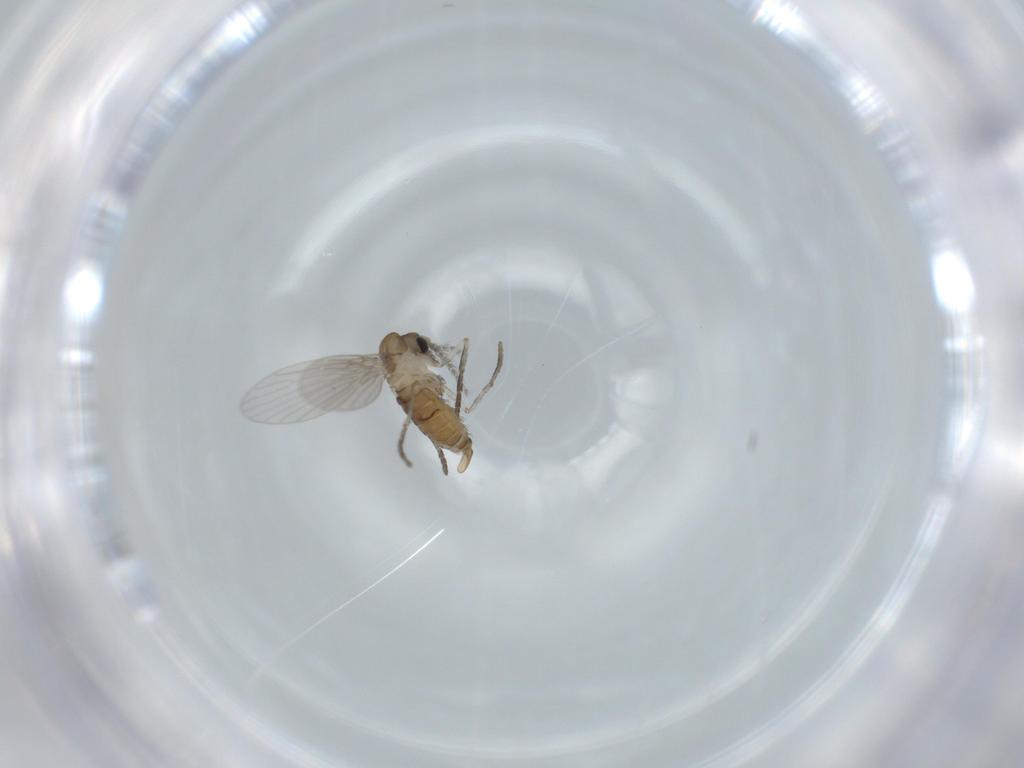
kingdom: Animalia
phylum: Arthropoda
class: Insecta
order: Diptera
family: Psychodidae
